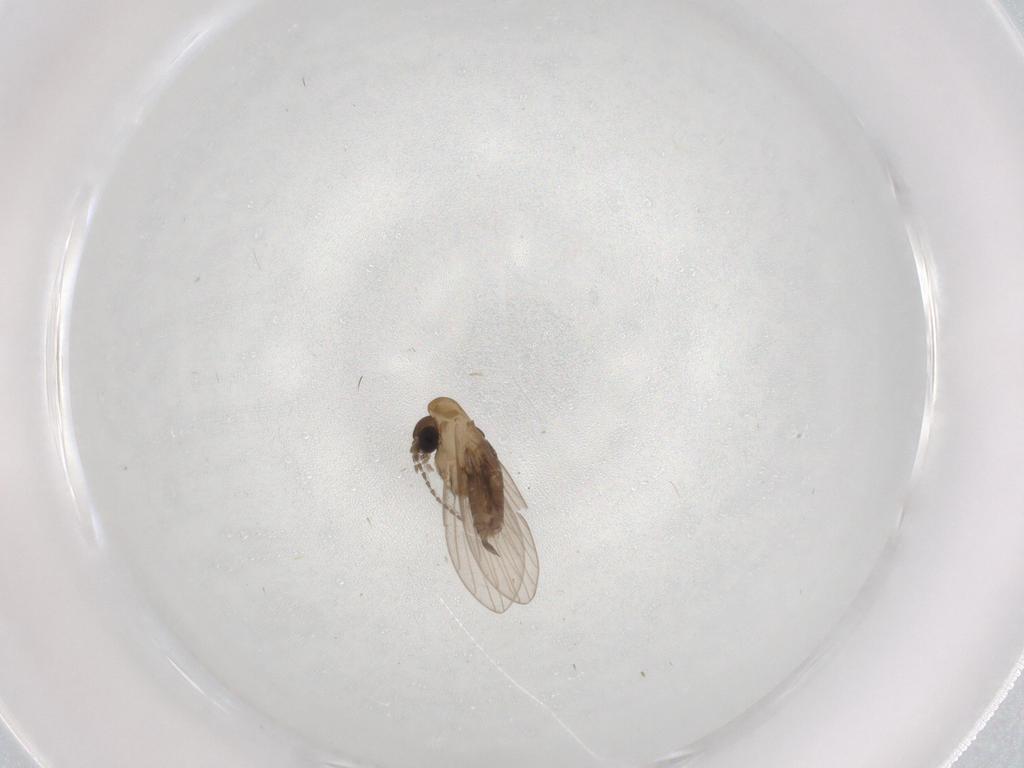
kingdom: Animalia
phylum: Arthropoda
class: Insecta
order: Diptera
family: Psychodidae
